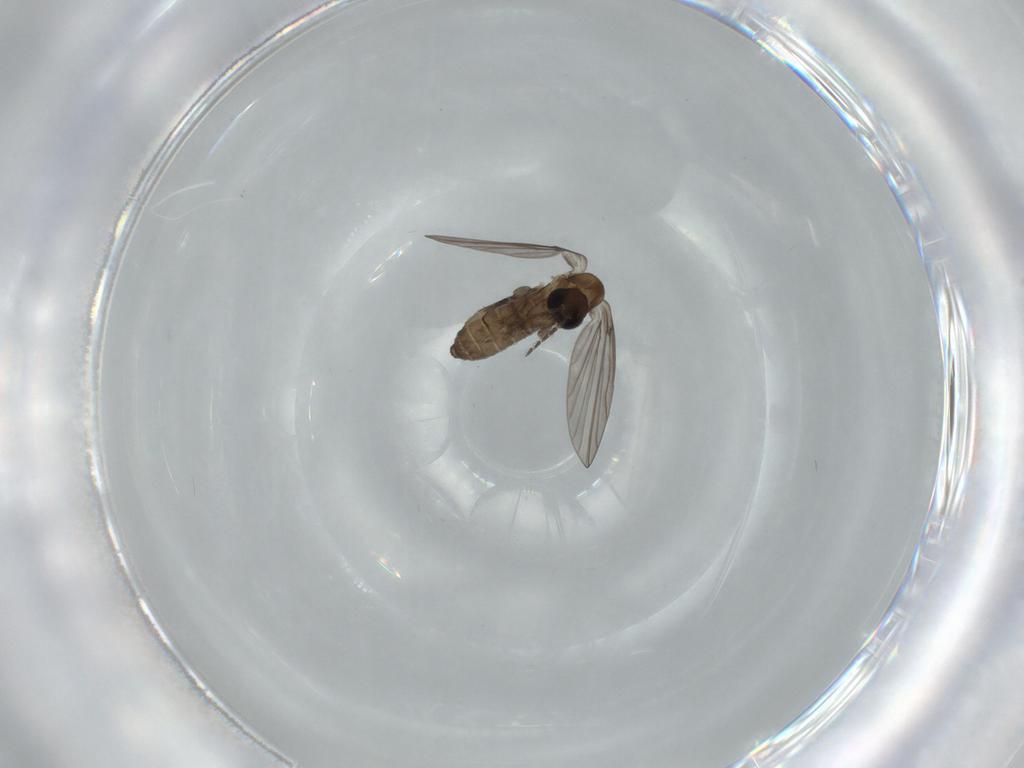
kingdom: Animalia
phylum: Arthropoda
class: Insecta
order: Diptera
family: Psychodidae
